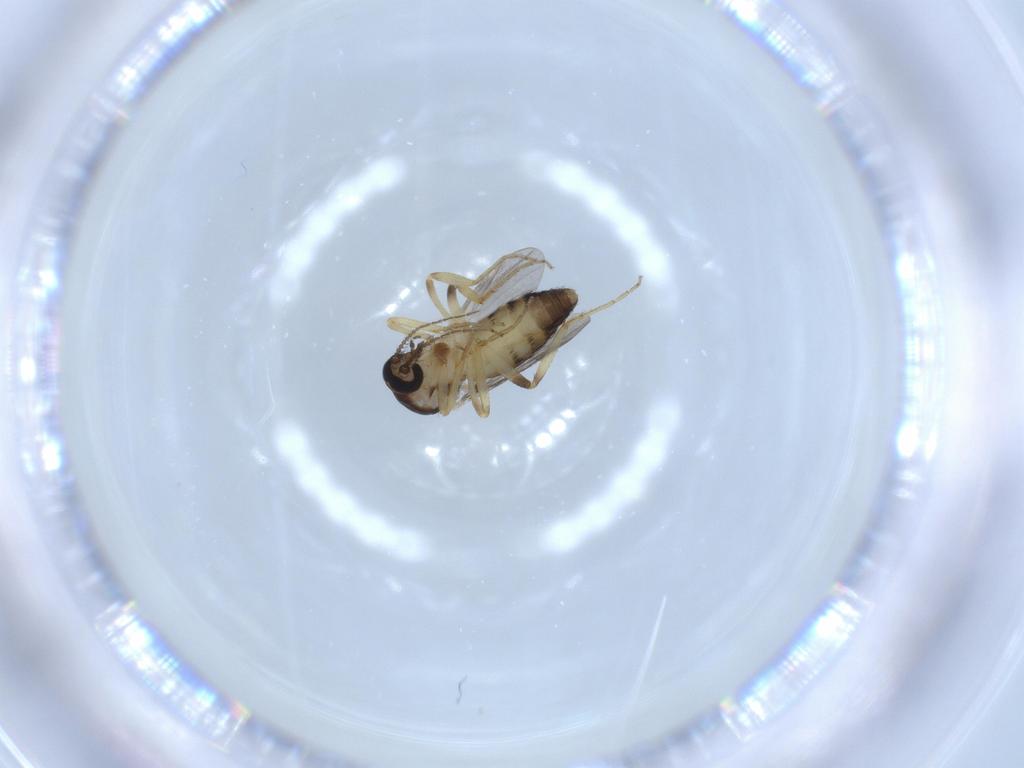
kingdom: Animalia
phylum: Arthropoda
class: Insecta
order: Diptera
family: Ceratopogonidae
